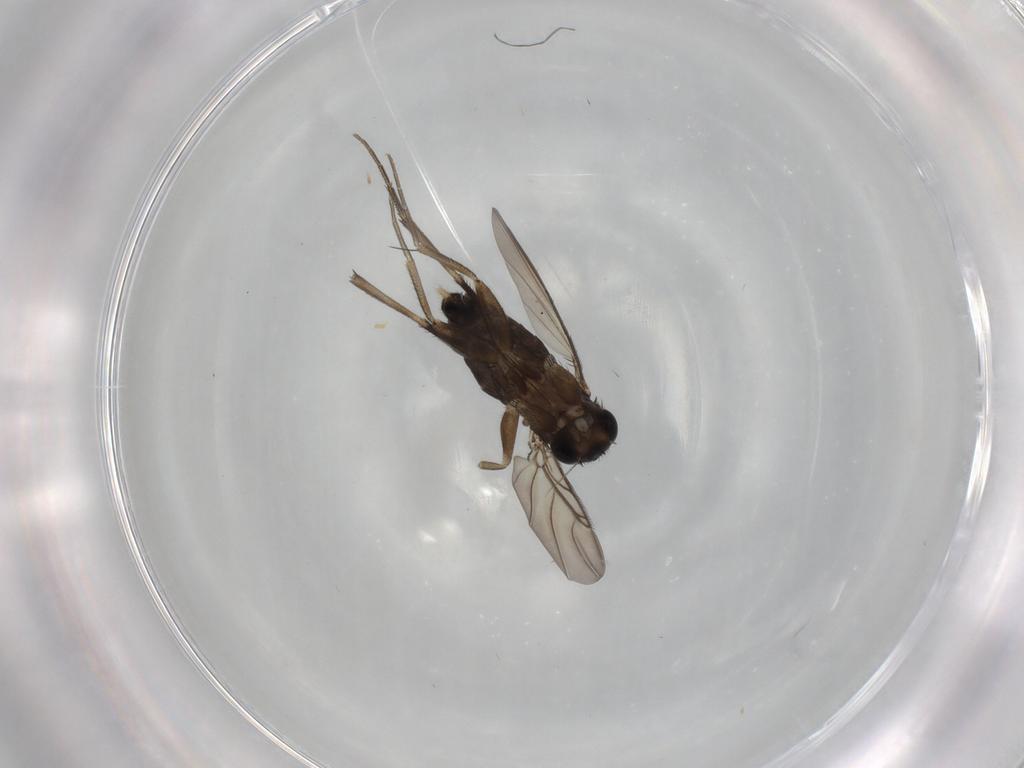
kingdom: Animalia
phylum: Arthropoda
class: Insecta
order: Diptera
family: Phoridae
